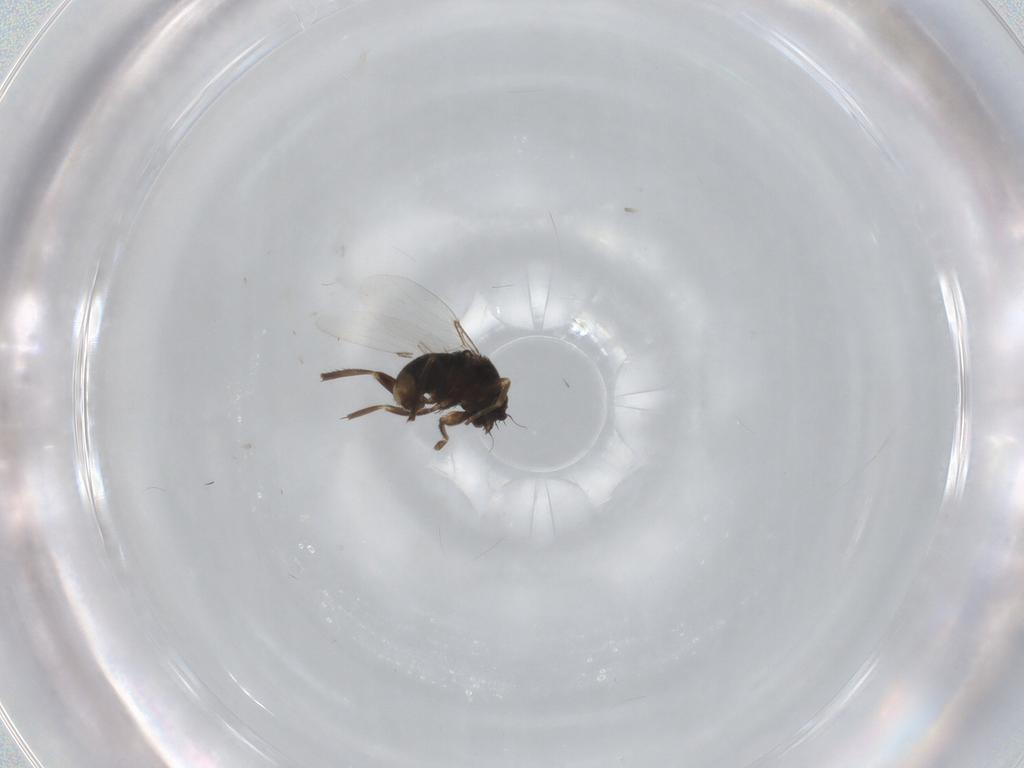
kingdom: Animalia
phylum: Arthropoda
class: Insecta
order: Diptera
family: Phoridae
